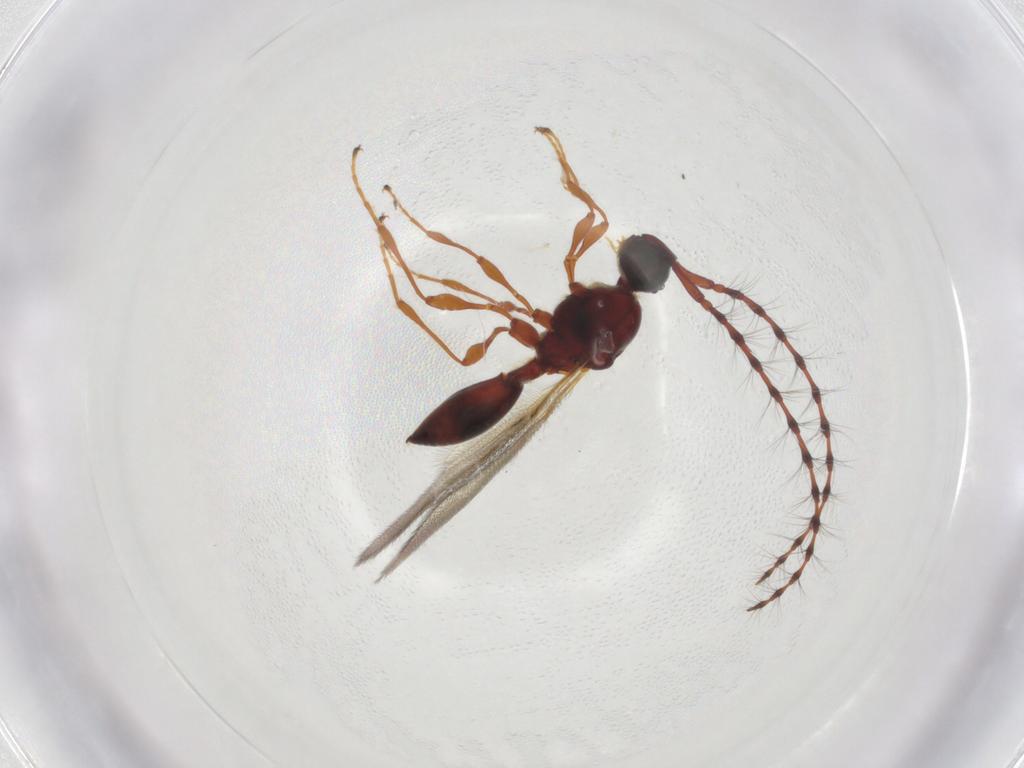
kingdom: Animalia
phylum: Arthropoda
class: Insecta
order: Hymenoptera
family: Diapriidae
